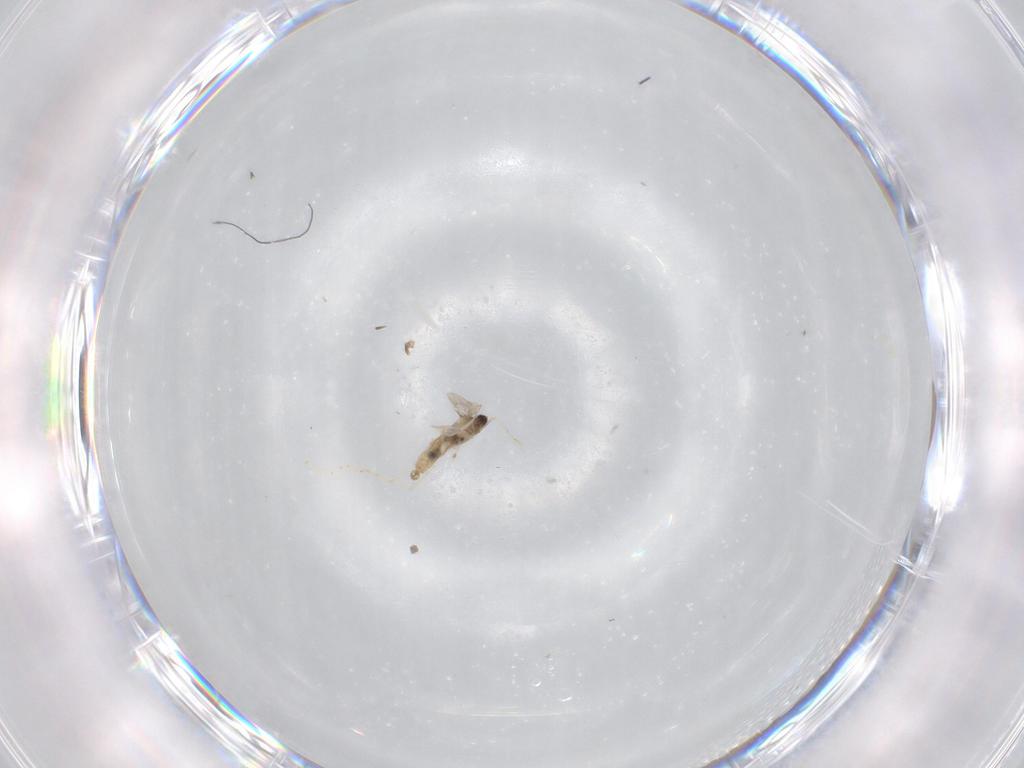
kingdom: Animalia
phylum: Arthropoda
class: Insecta
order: Diptera
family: Cecidomyiidae
